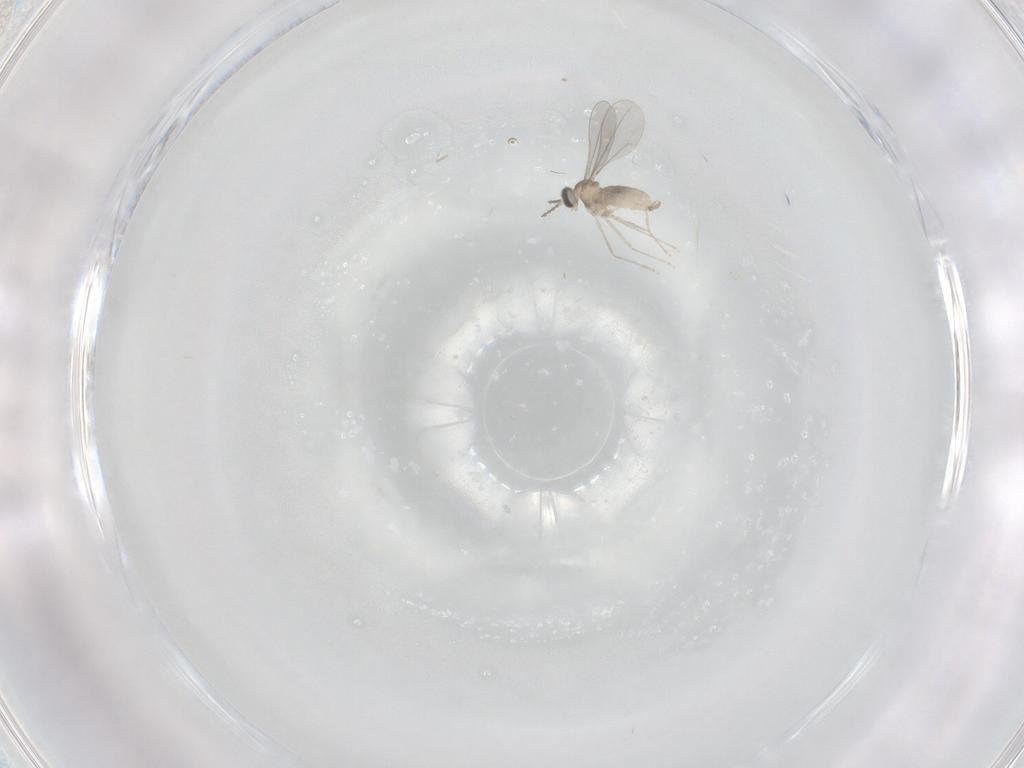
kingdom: Animalia
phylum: Arthropoda
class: Insecta
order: Diptera
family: Cecidomyiidae
